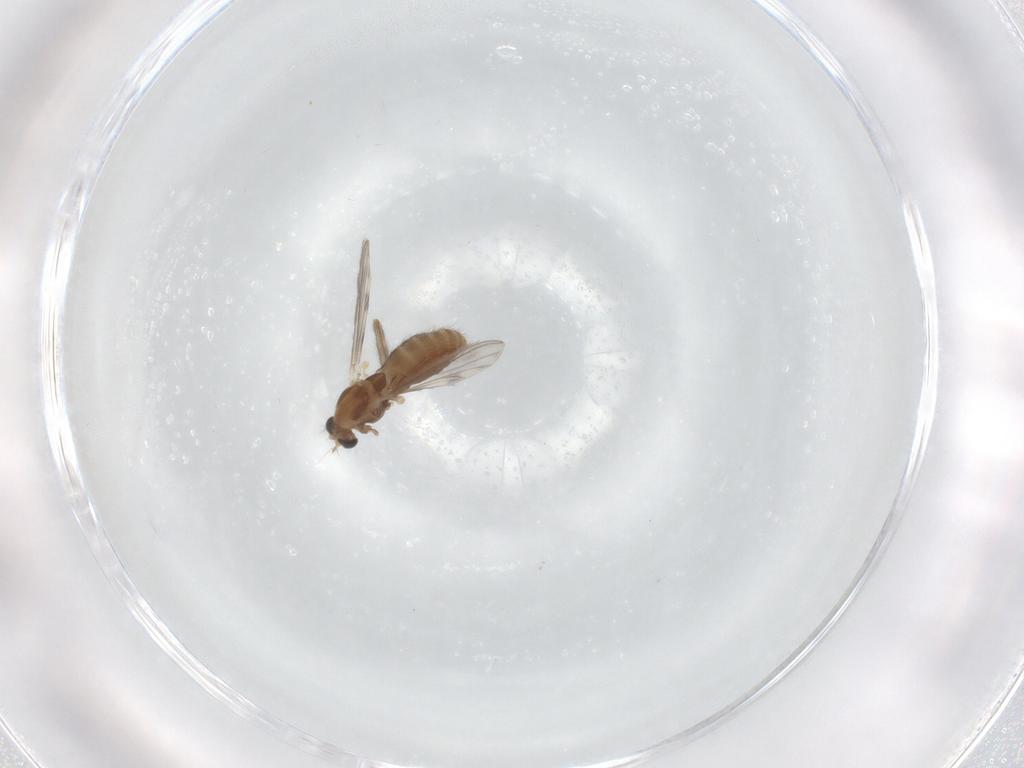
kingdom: Animalia
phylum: Arthropoda
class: Insecta
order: Diptera
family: Chironomidae
